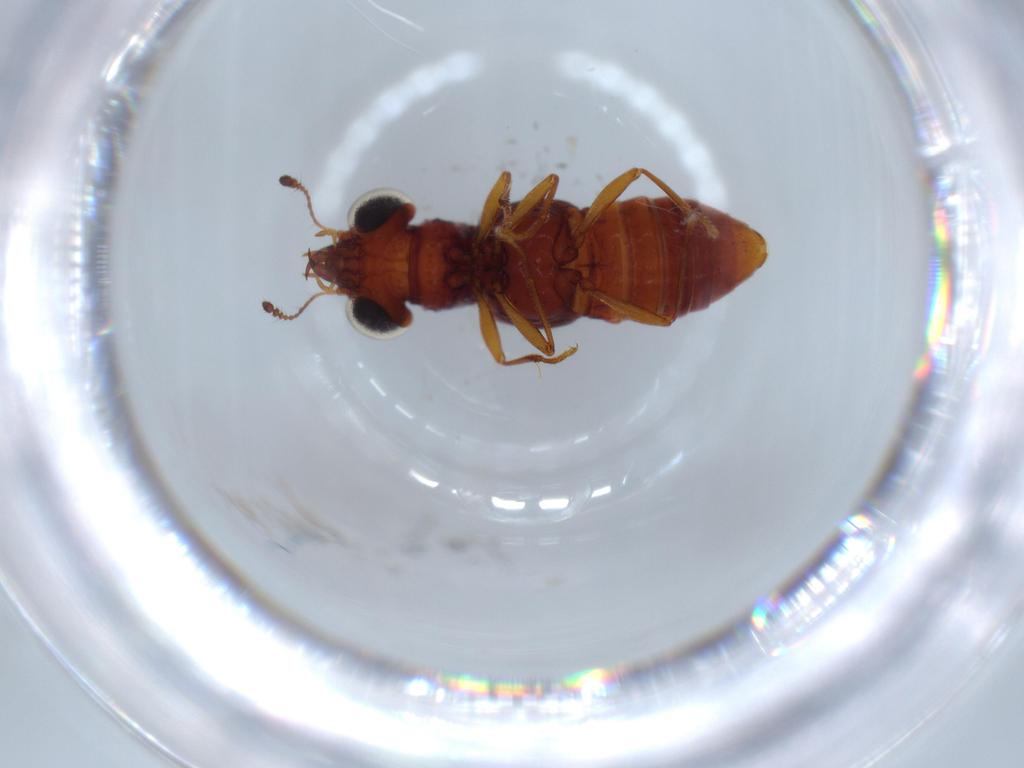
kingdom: Animalia
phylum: Arthropoda
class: Insecta
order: Coleoptera
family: Staphylinidae
